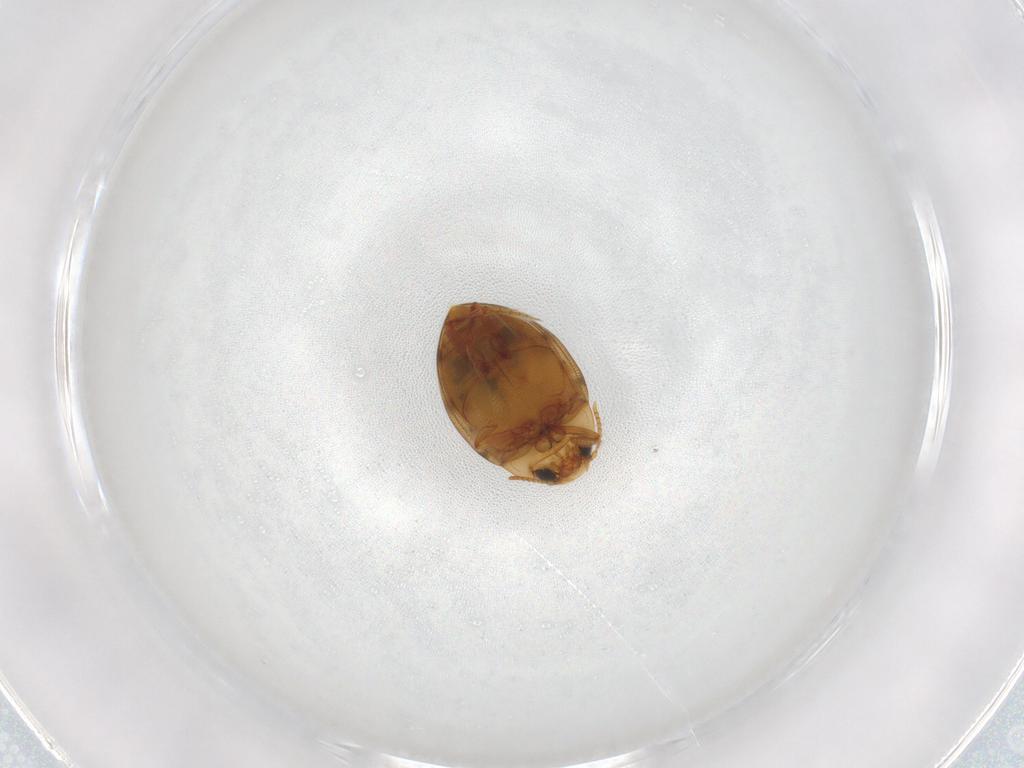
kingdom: Animalia
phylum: Arthropoda
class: Insecta
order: Coleoptera
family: Dytiscidae
